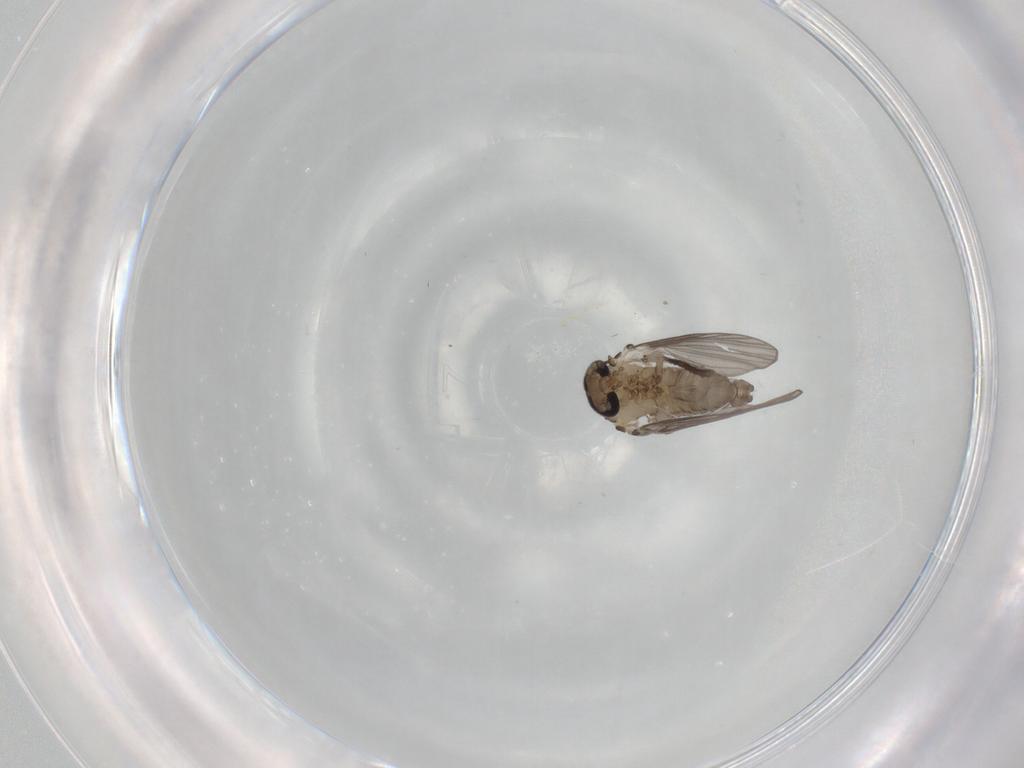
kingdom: Animalia
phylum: Arthropoda
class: Insecta
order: Diptera
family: Psychodidae
